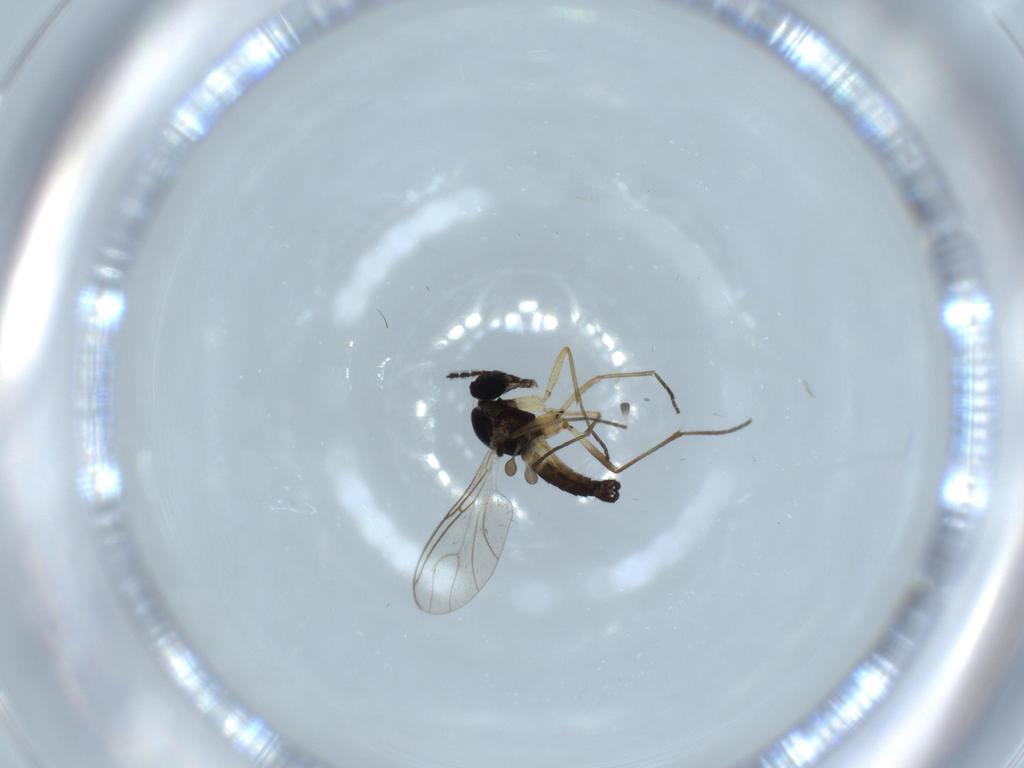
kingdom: Animalia
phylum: Arthropoda
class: Insecta
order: Diptera
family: Sciaridae
